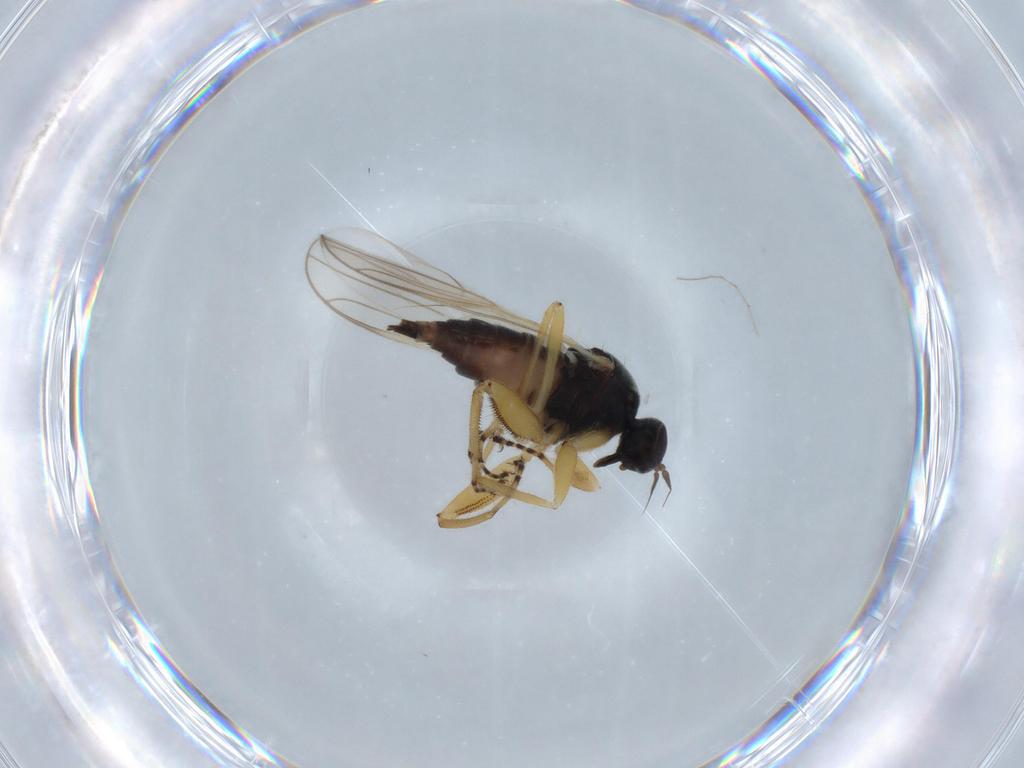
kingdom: Animalia
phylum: Arthropoda
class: Insecta
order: Diptera
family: Hybotidae
